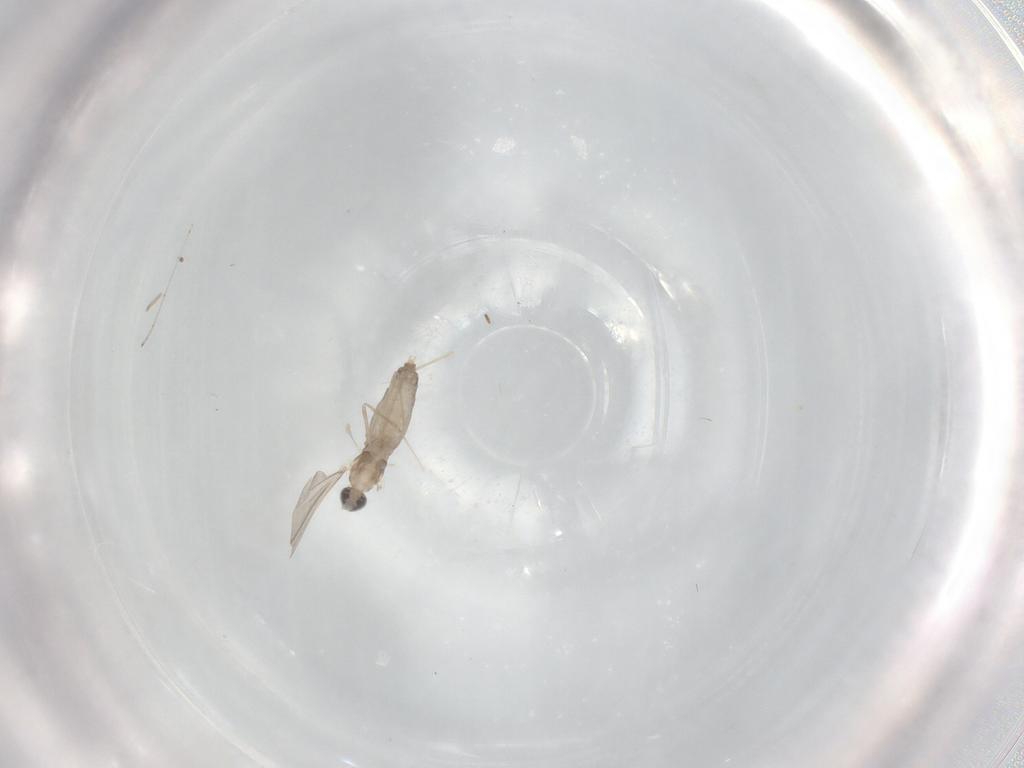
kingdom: Animalia
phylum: Arthropoda
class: Insecta
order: Diptera
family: Cecidomyiidae
